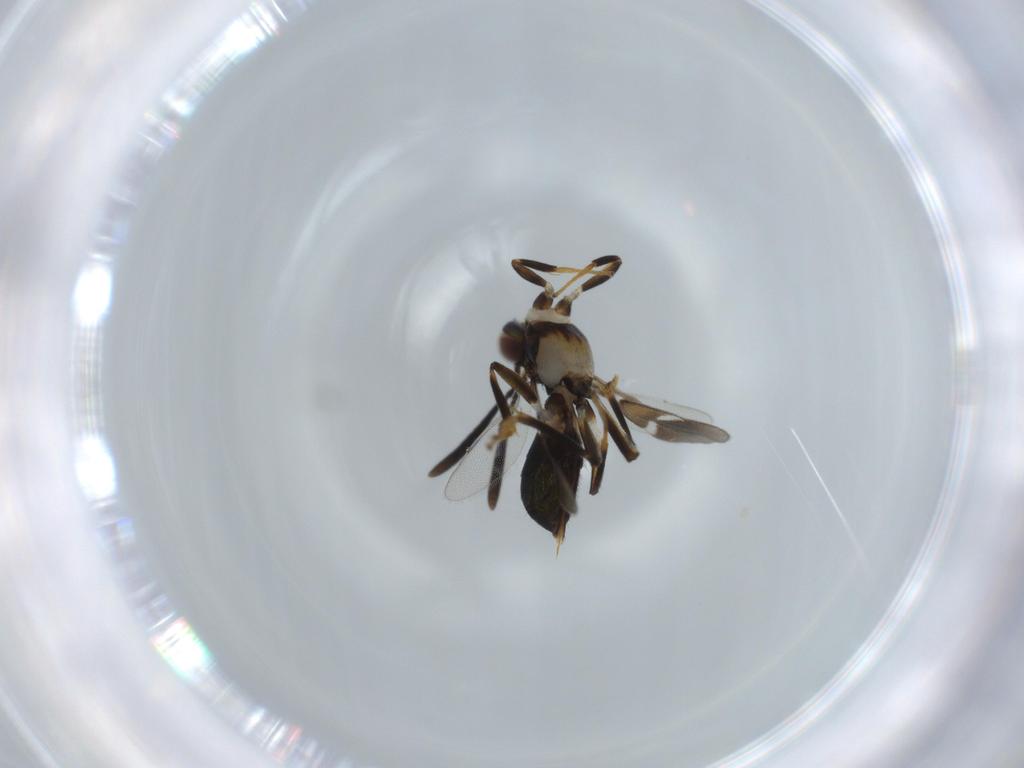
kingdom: Animalia
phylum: Arthropoda
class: Insecta
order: Hymenoptera
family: Eupelmidae
